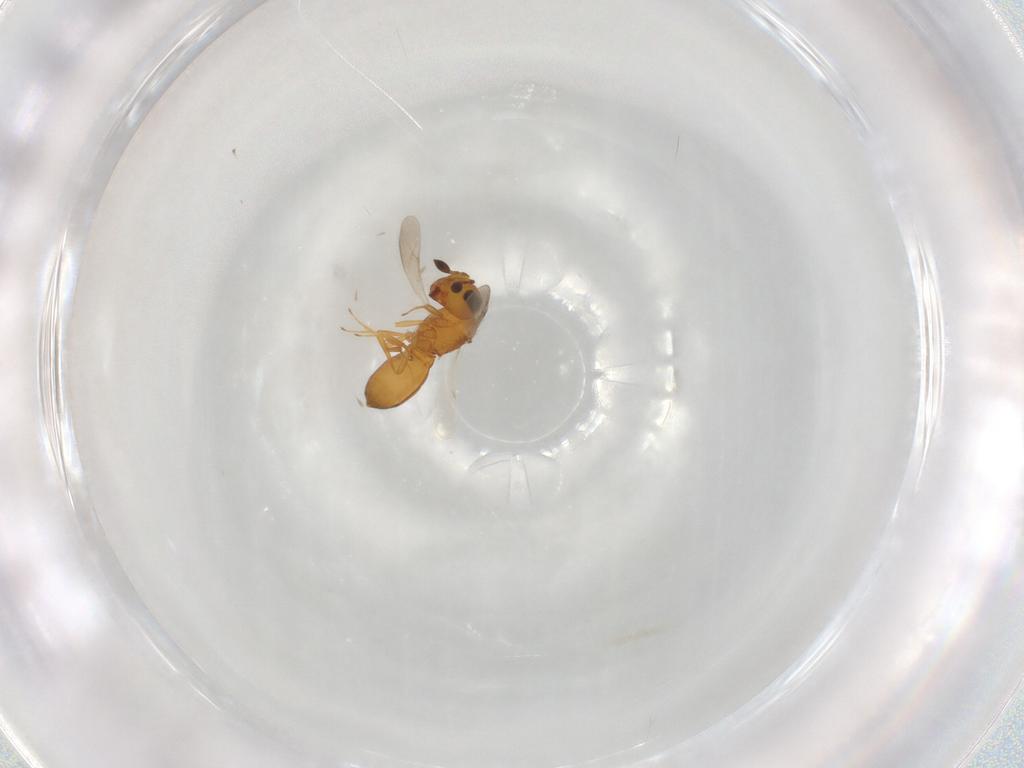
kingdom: Animalia
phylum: Arthropoda
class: Insecta
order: Hymenoptera
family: Scelionidae
